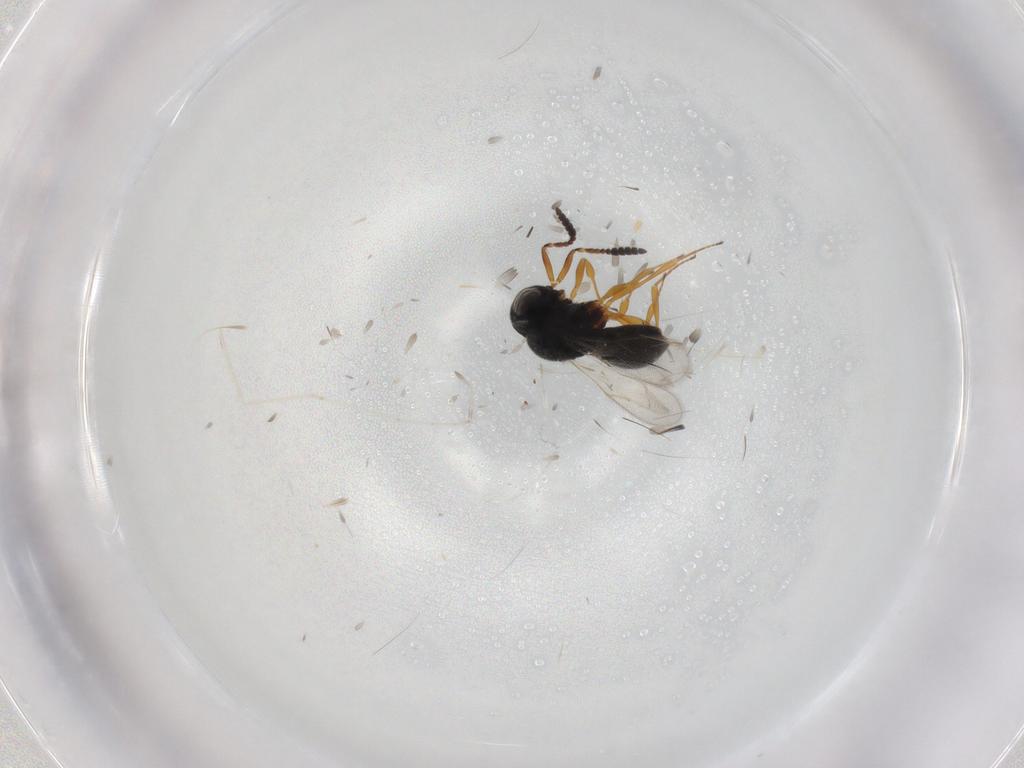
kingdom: Animalia
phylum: Arthropoda
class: Insecta
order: Hymenoptera
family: Scelionidae
